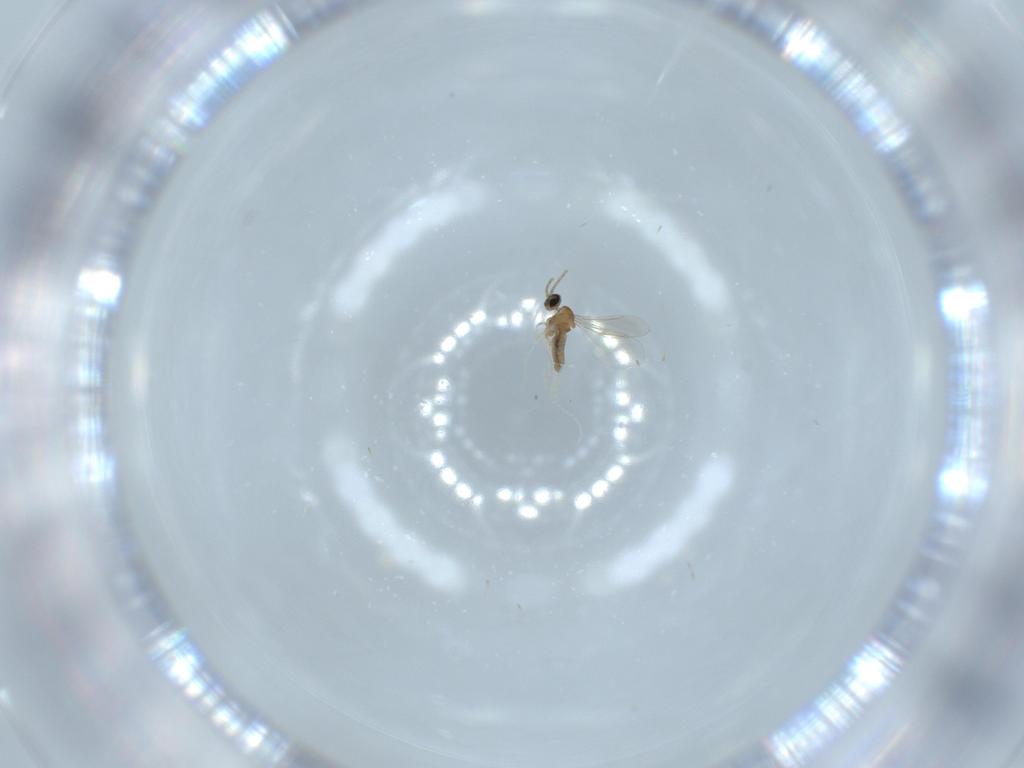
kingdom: Animalia
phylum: Arthropoda
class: Insecta
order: Diptera
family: Cecidomyiidae
